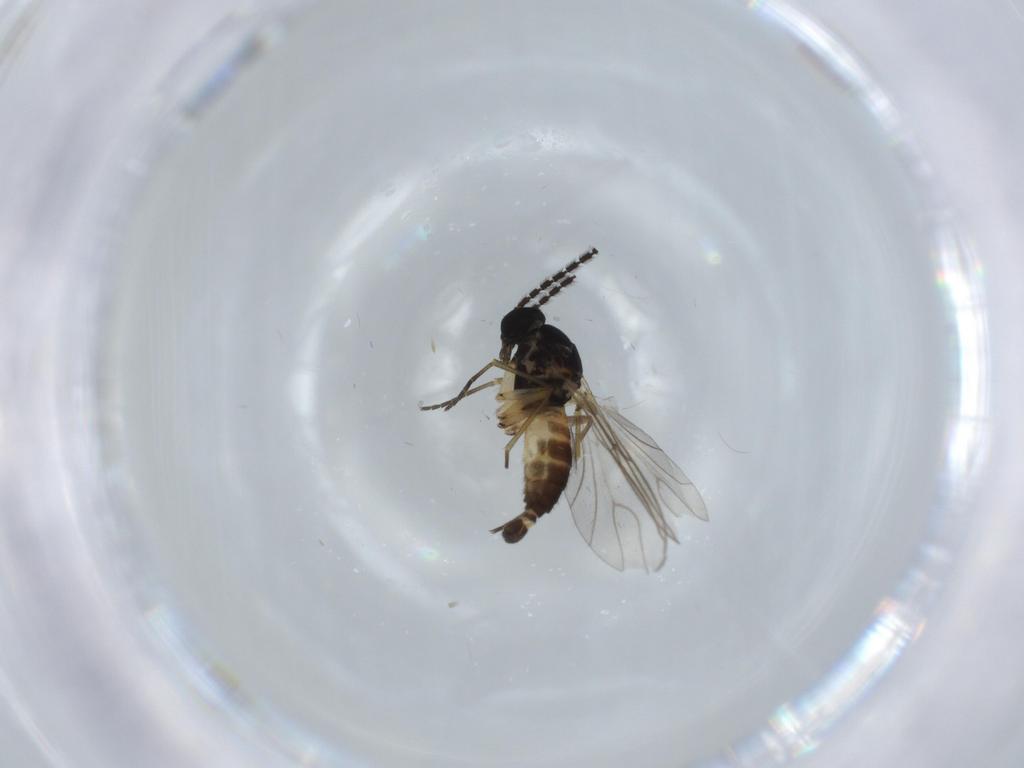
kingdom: Animalia
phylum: Arthropoda
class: Insecta
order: Diptera
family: Sciaridae
